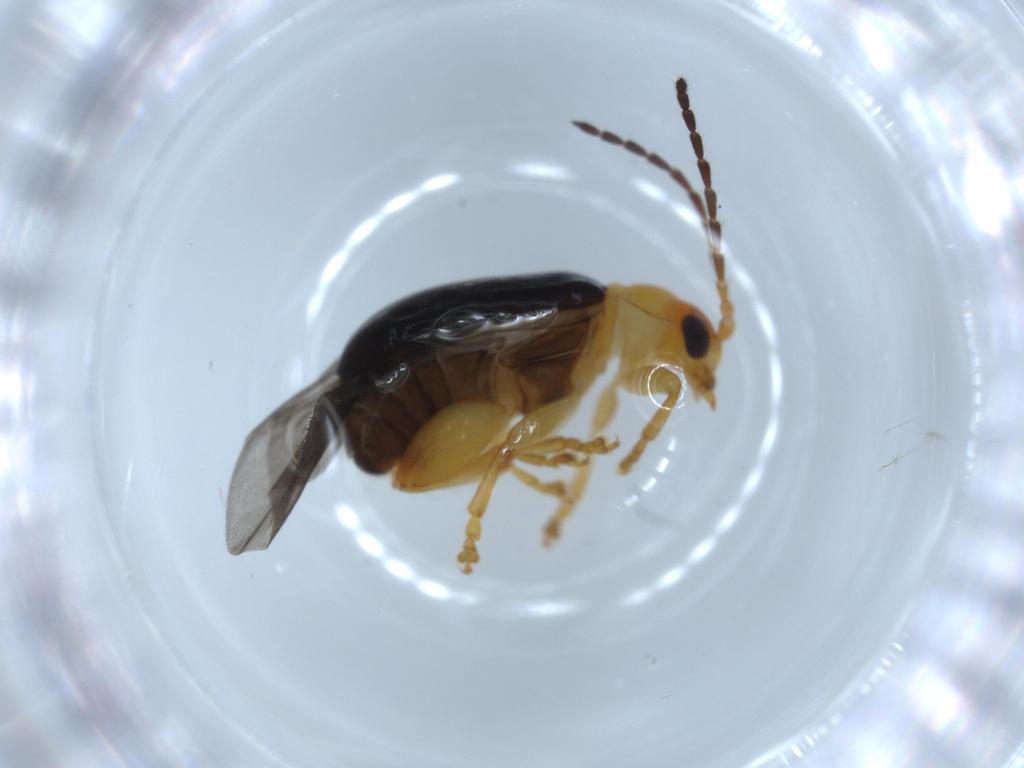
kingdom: Animalia
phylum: Arthropoda
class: Insecta
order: Coleoptera
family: Chrysomelidae
